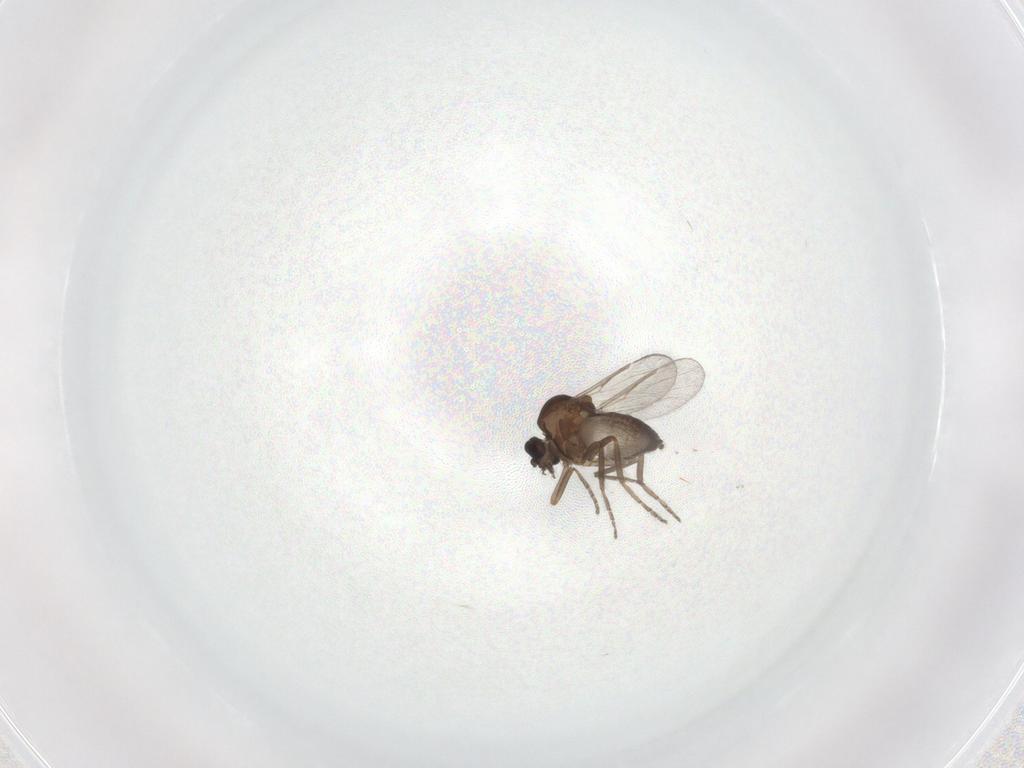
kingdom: Animalia
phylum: Arthropoda
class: Insecta
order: Diptera
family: Ceratopogonidae
